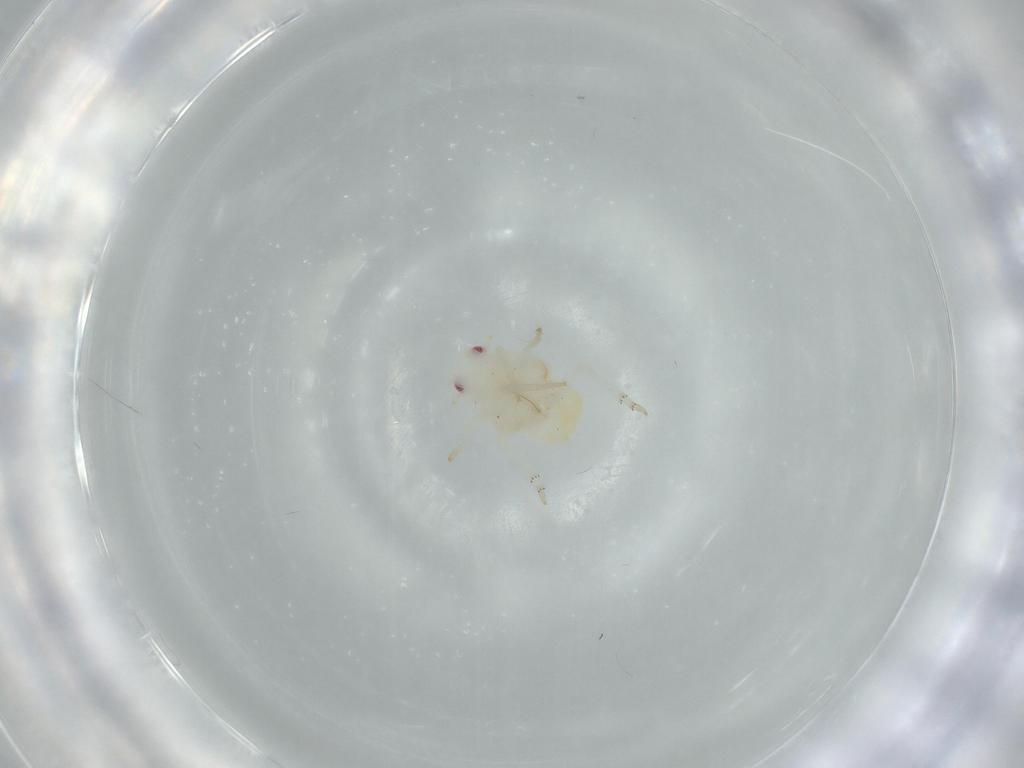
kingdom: Animalia
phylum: Arthropoda
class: Insecta
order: Hemiptera
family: Flatidae
